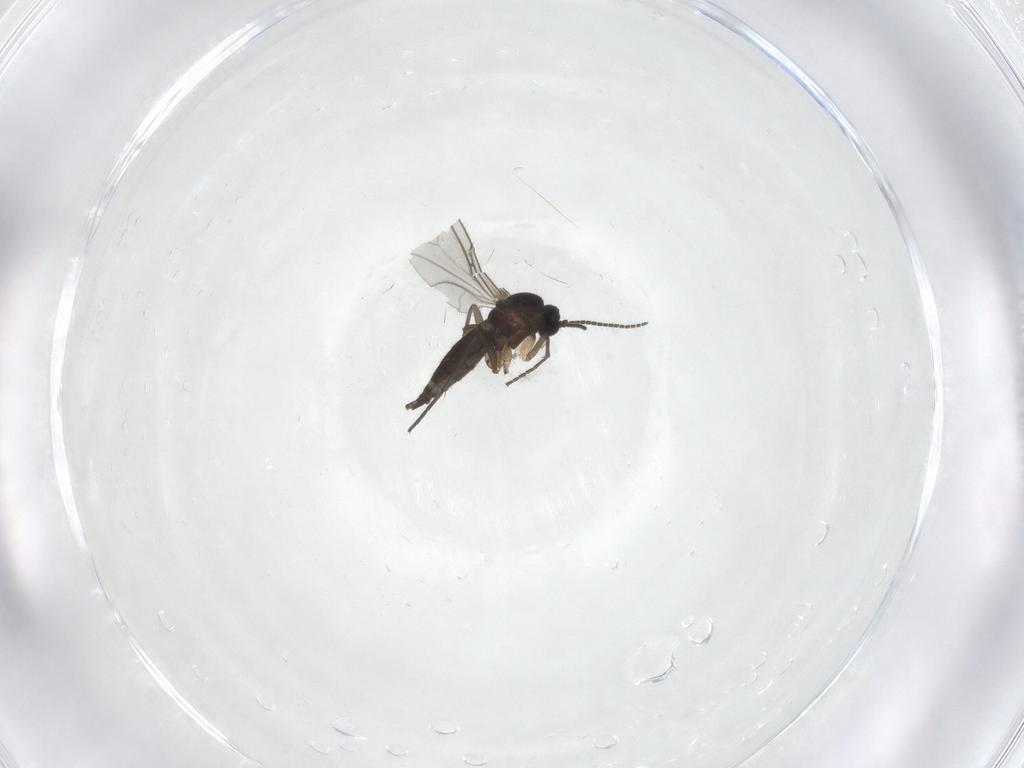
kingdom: Animalia
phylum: Arthropoda
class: Insecta
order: Diptera
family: Sciaridae
